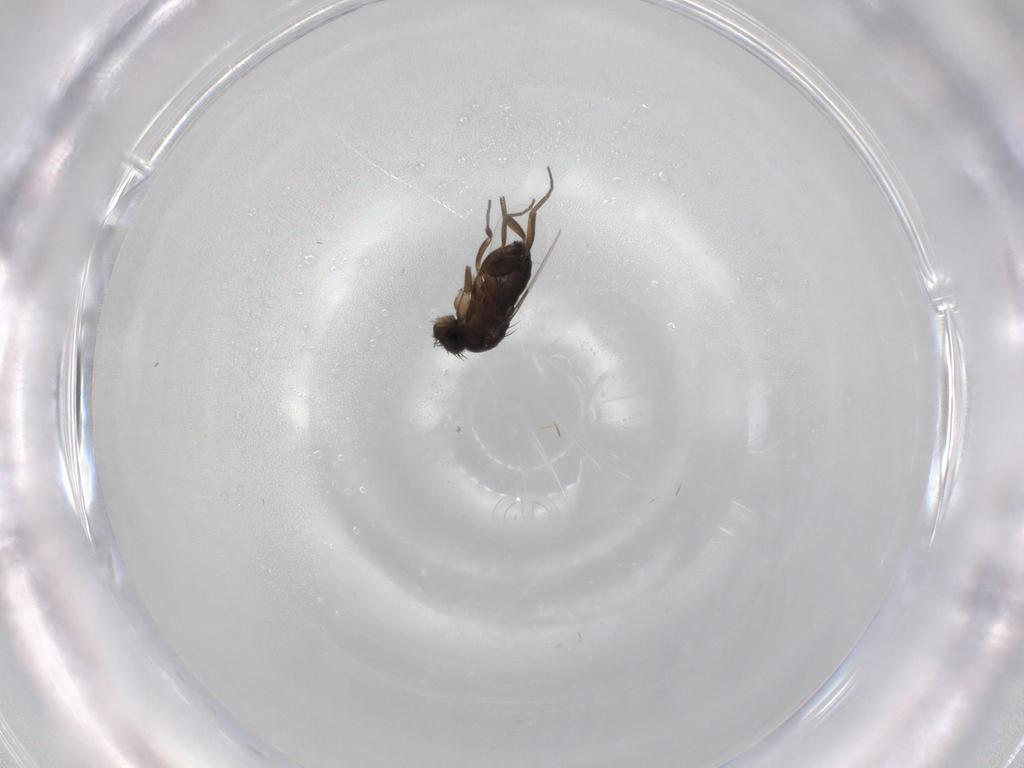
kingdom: Animalia
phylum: Arthropoda
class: Insecta
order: Diptera
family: Phoridae
